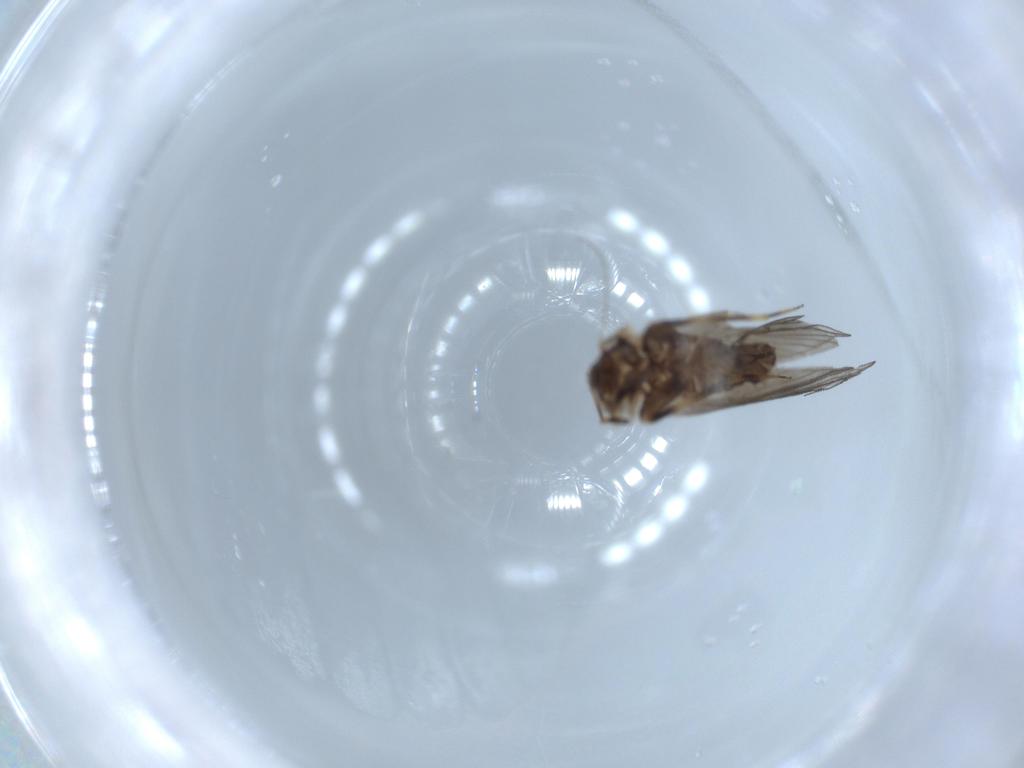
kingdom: Animalia
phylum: Arthropoda
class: Insecta
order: Psocodea
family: Lepidopsocidae
